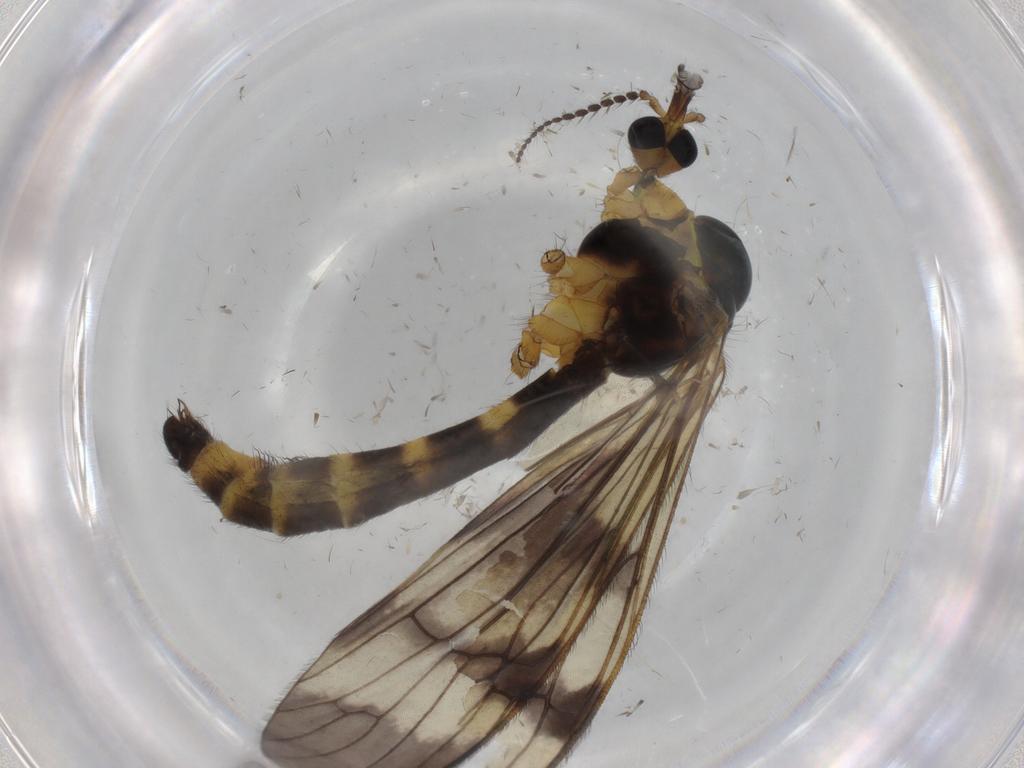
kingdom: Animalia
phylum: Arthropoda
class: Insecta
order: Diptera
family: Limoniidae
